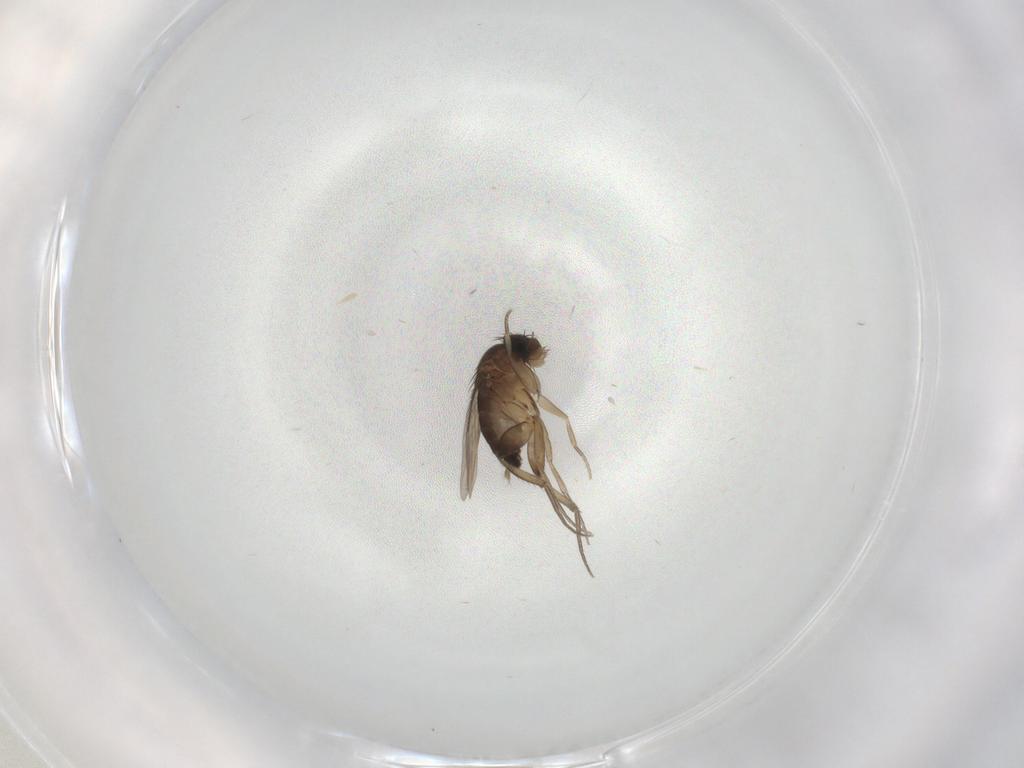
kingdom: Animalia
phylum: Arthropoda
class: Insecta
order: Diptera
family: Phoridae
